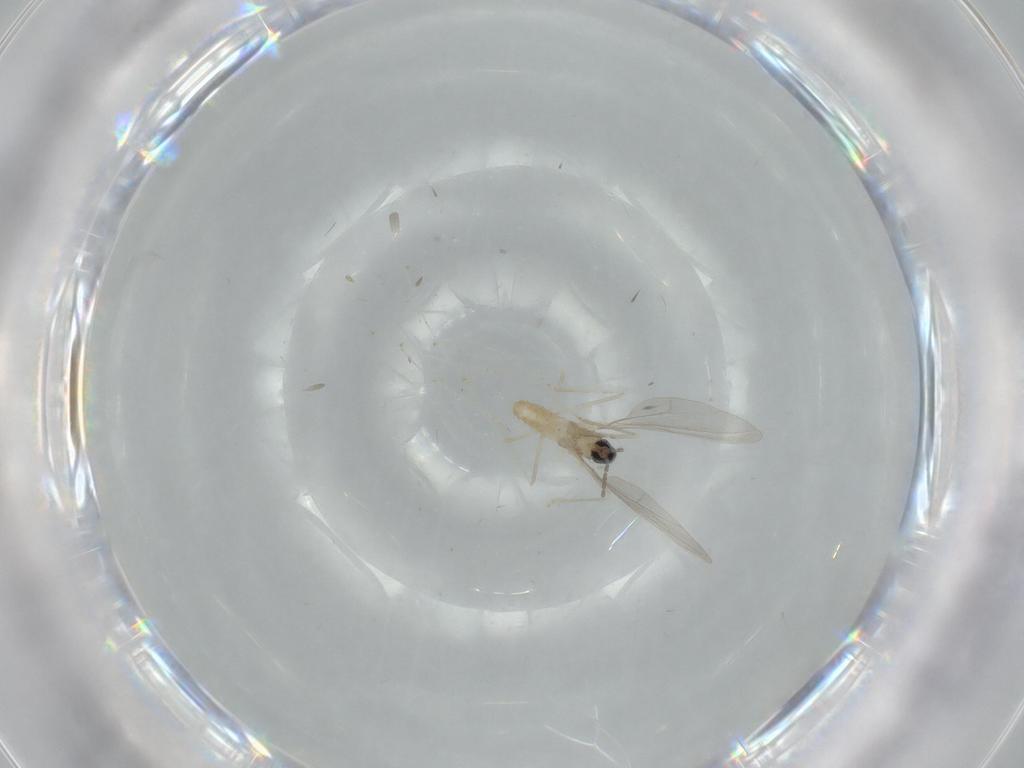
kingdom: Animalia
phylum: Arthropoda
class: Insecta
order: Diptera
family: Cecidomyiidae
